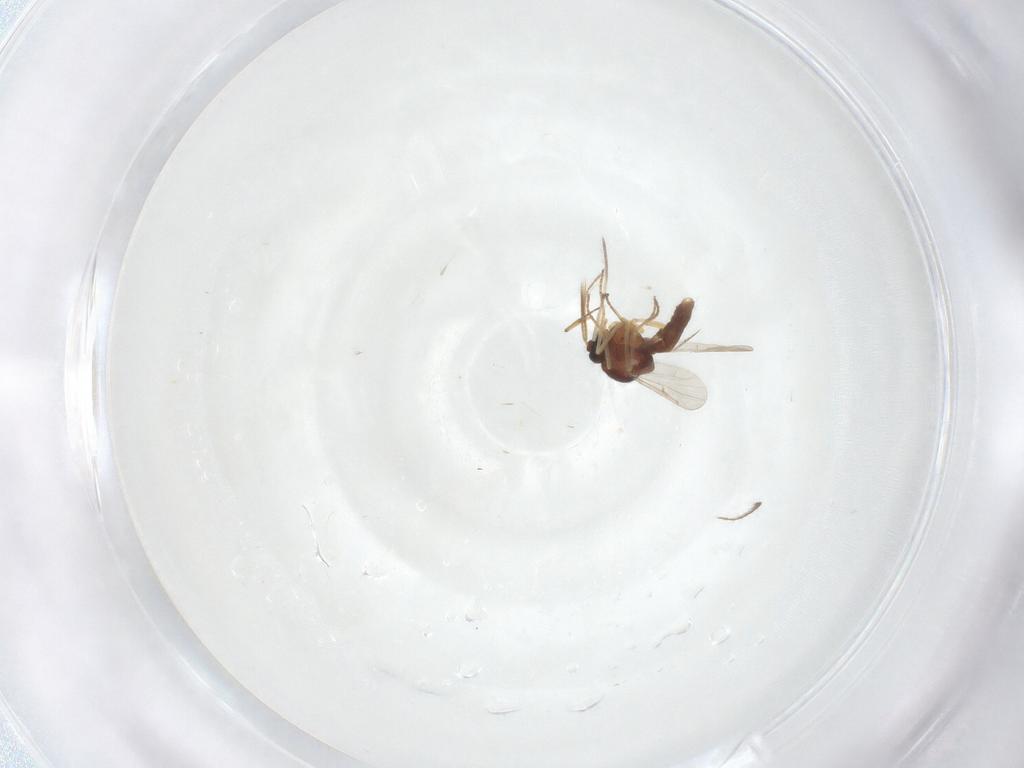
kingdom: Animalia
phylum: Arthropoda
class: Insecta
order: Diptera
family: Ceratopogonidae
